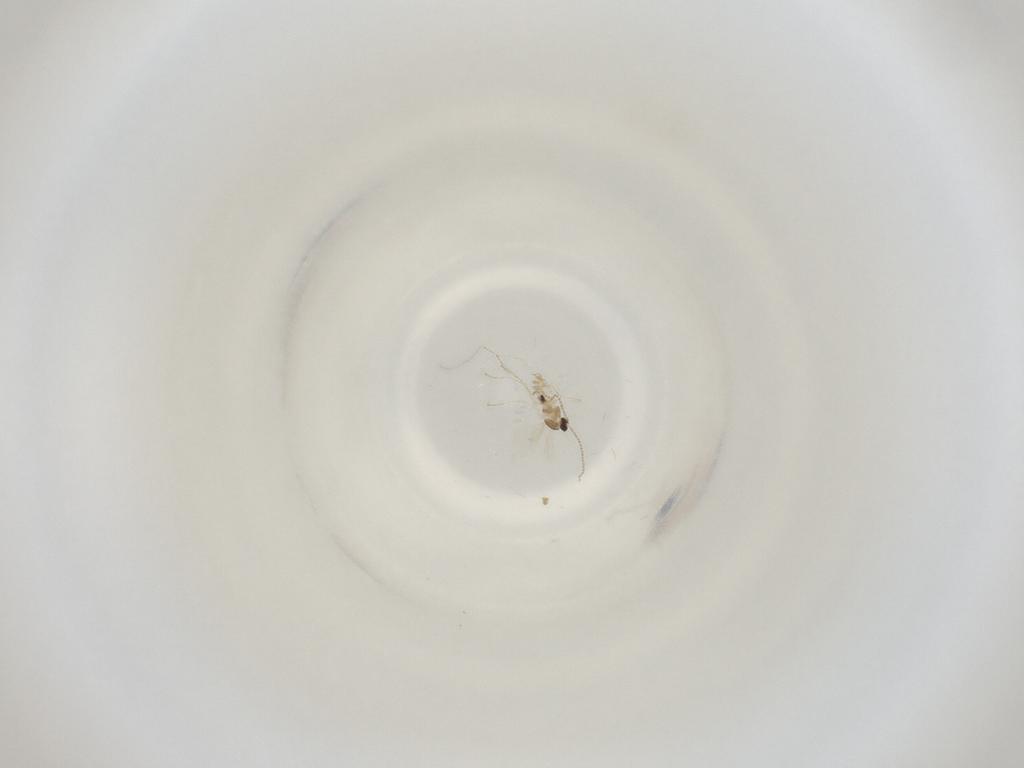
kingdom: Animalia
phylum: Arthropoda
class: Insecta
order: Diptera
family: Cecidomyiidae
